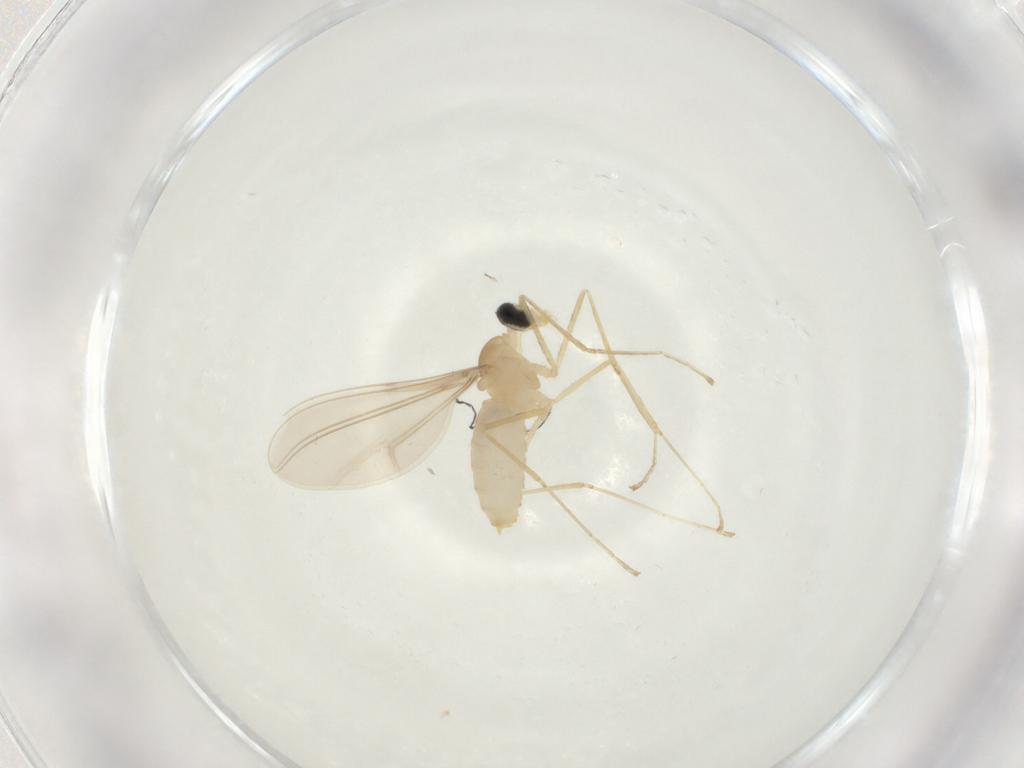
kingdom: Animalia
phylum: Arthropoda
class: Insecta
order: Diptera
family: Cecidomyiidae
